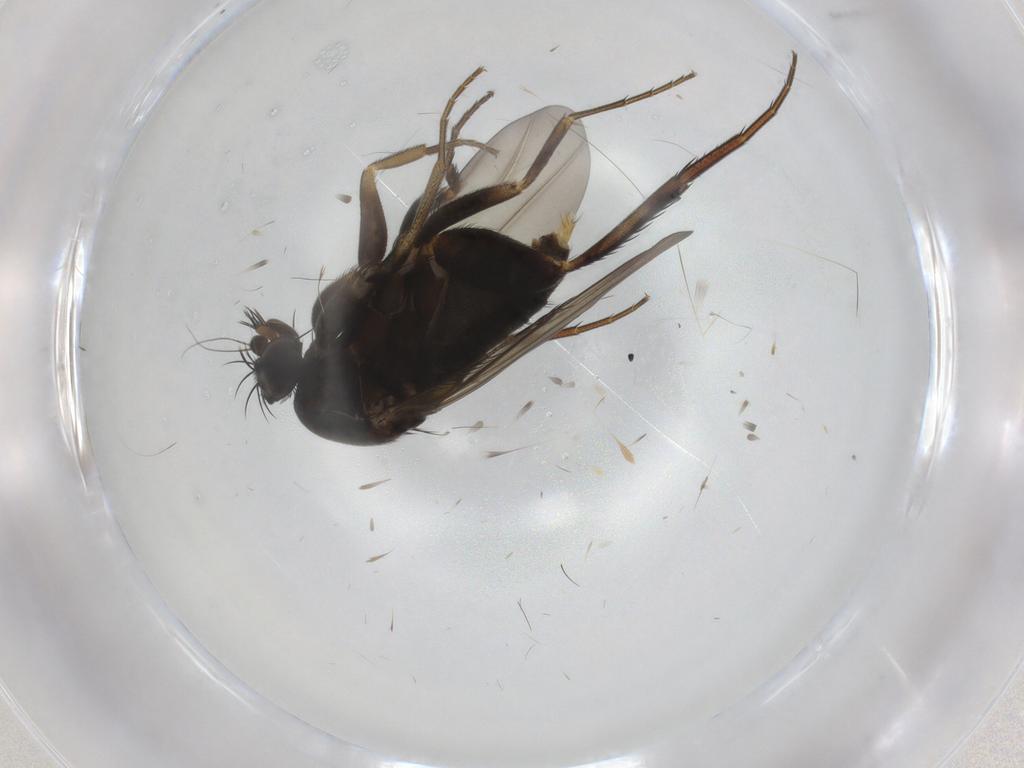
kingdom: Animalia
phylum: Arthropoda
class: Insecta
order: Diptera
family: Phoridae
